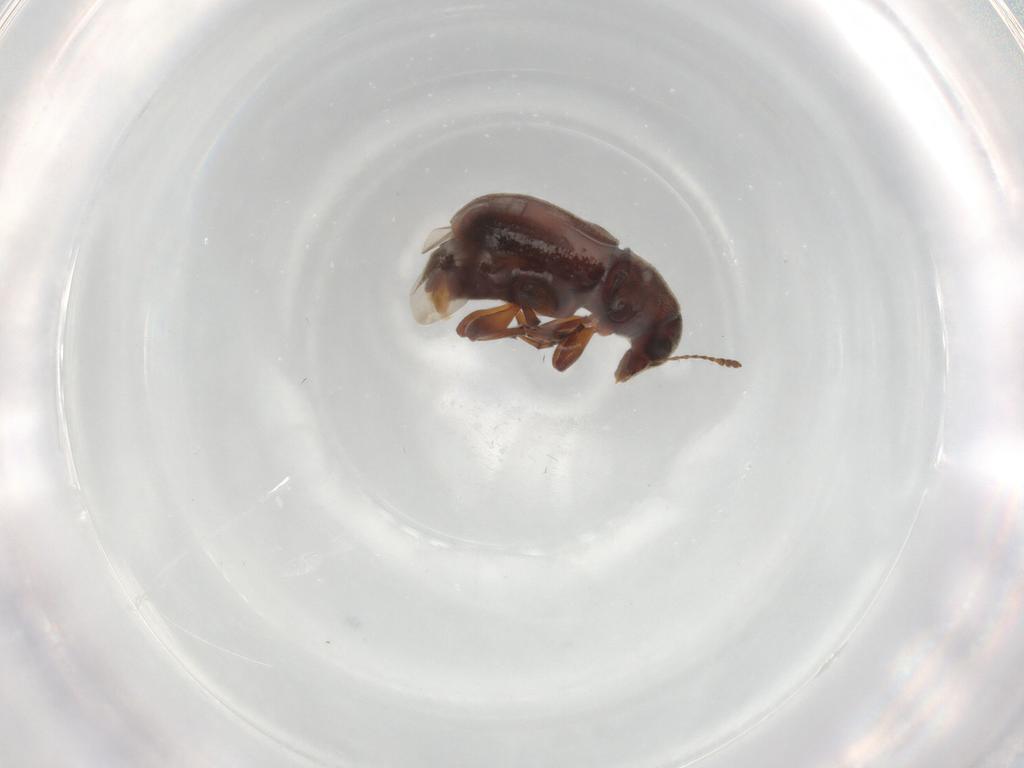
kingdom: Animalia
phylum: Arthropoda
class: Insecta
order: Coleoptera
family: Anthribidae
